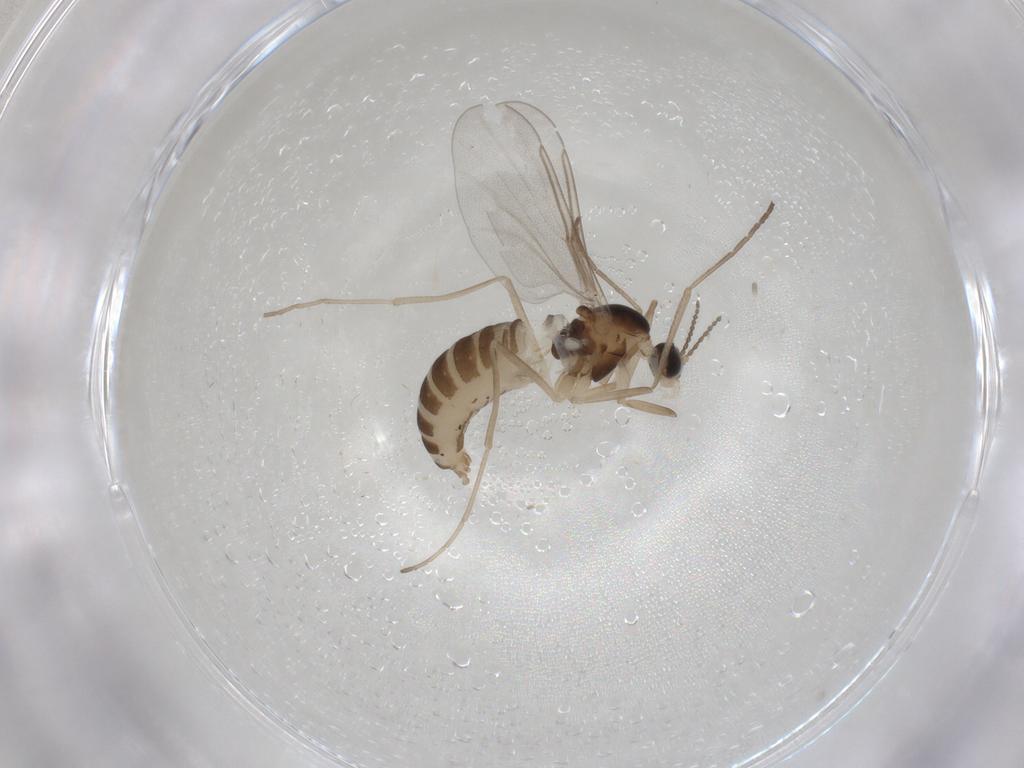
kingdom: Animalia
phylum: Arthropoda
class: Insecta
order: Diptera
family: Cecidomyiidae
